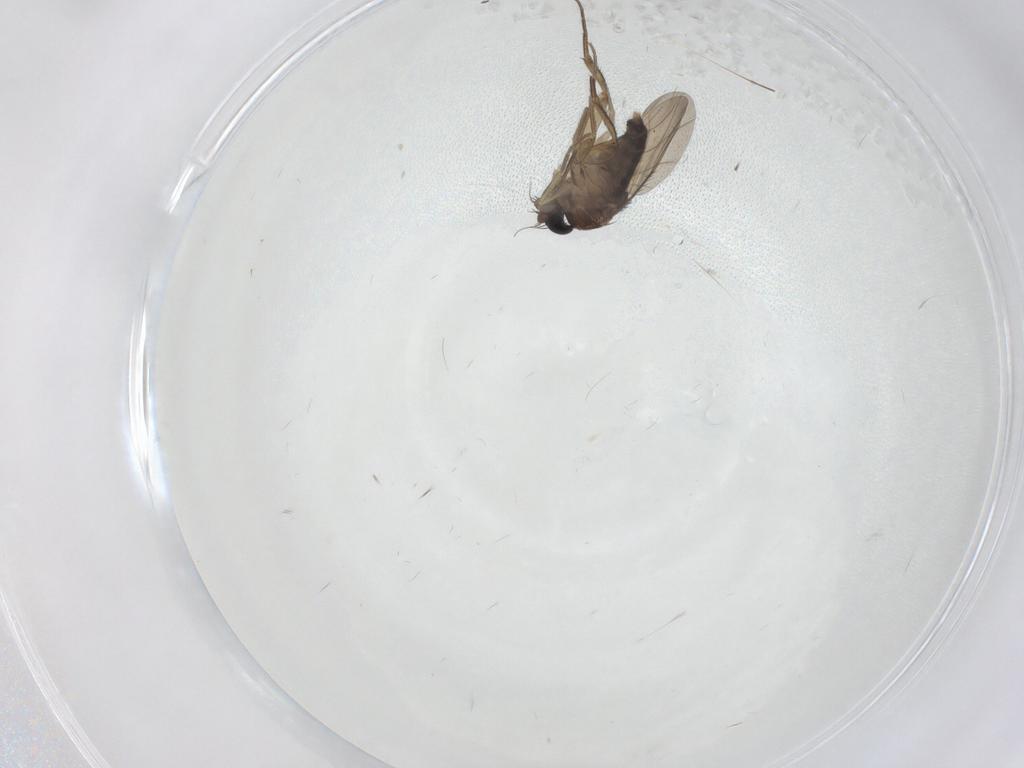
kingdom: Animalia
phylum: Arthropoda
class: Insecta
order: Diptera
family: Phoridae
